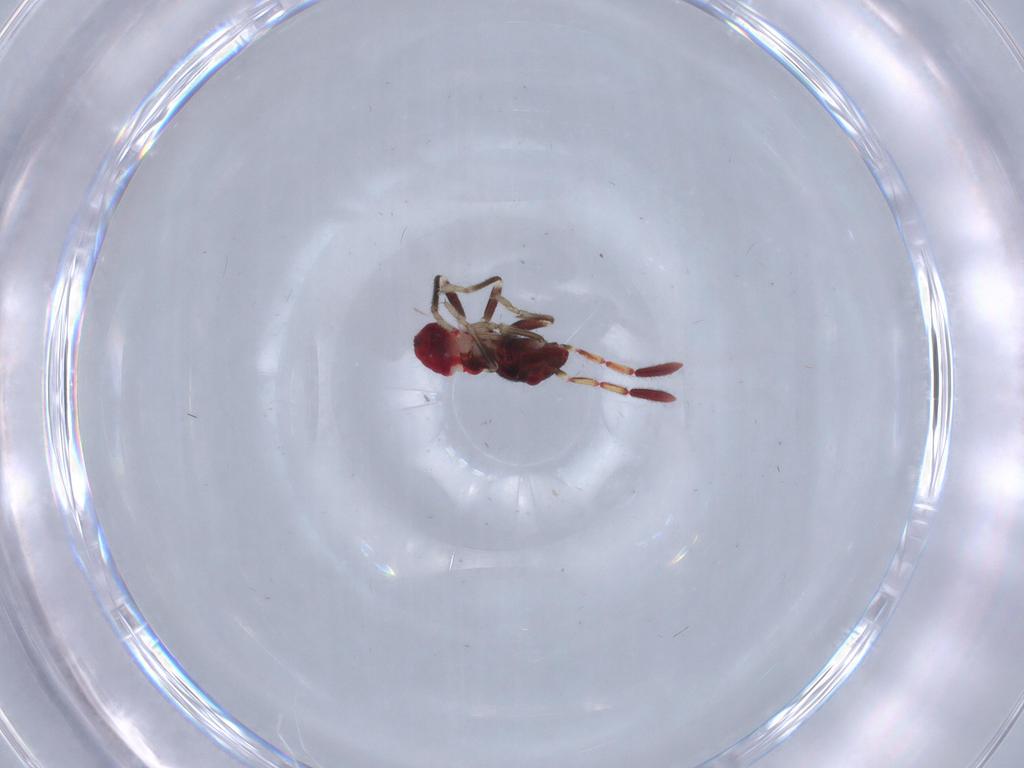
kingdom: Animalia
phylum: Arthropoda
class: Insecta
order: Hemiptera
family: Rhyparochromidae
